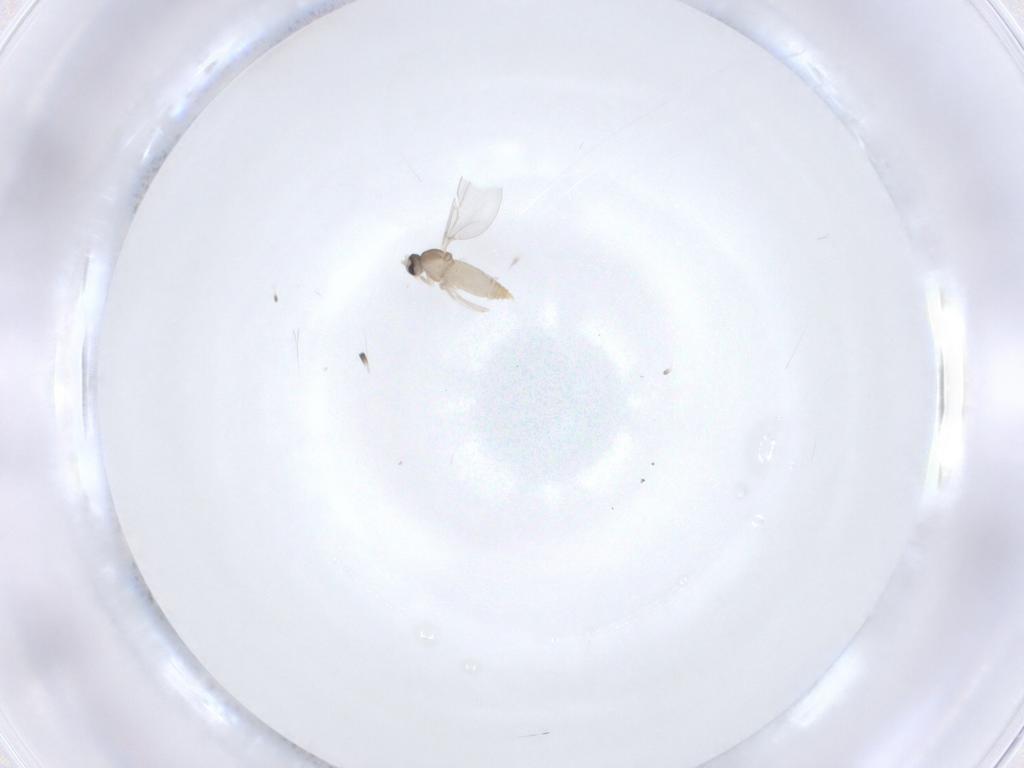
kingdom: Animalia
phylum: Arthropoda
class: Insecta
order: Diptera
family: Cecidomyiidae
